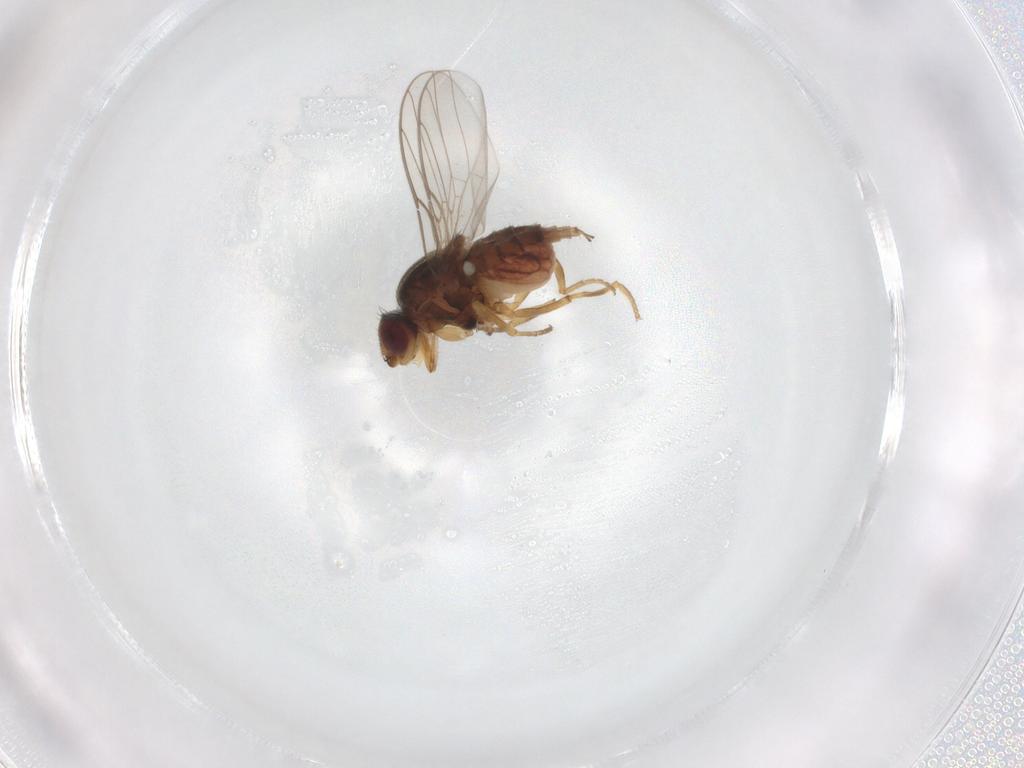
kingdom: Animalia
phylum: Arthropoda
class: Insecta
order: Diptera
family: Chloropidae
